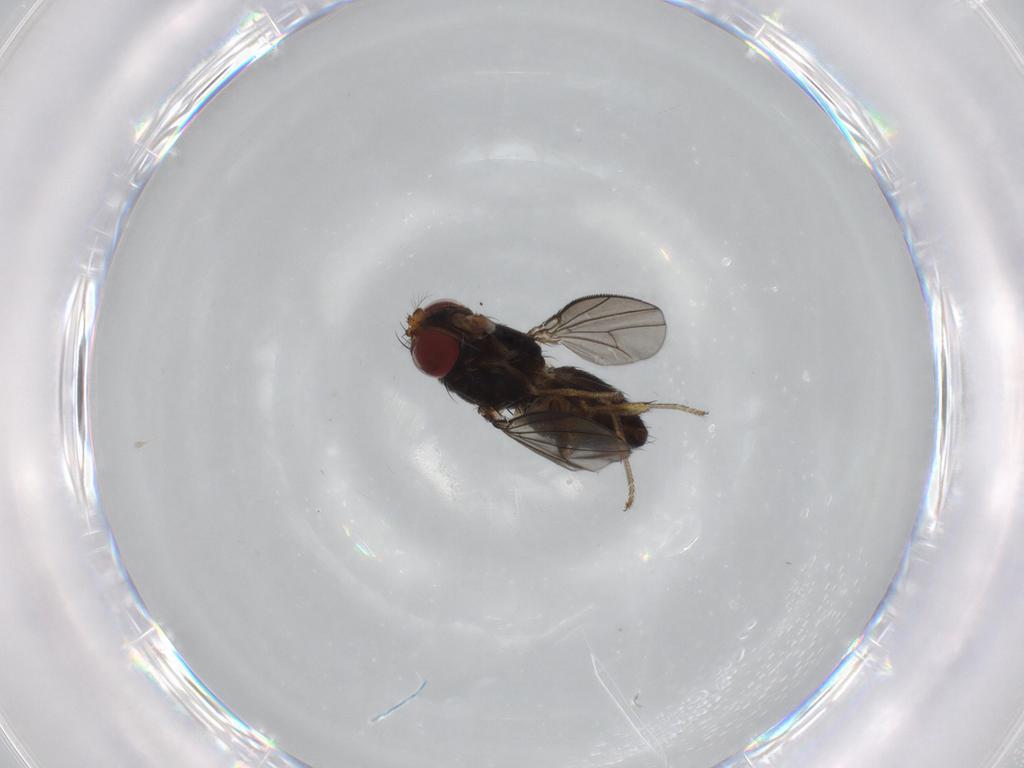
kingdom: Animalia
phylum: Arthropoda
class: Insecta
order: Diptera
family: Ephydridae
